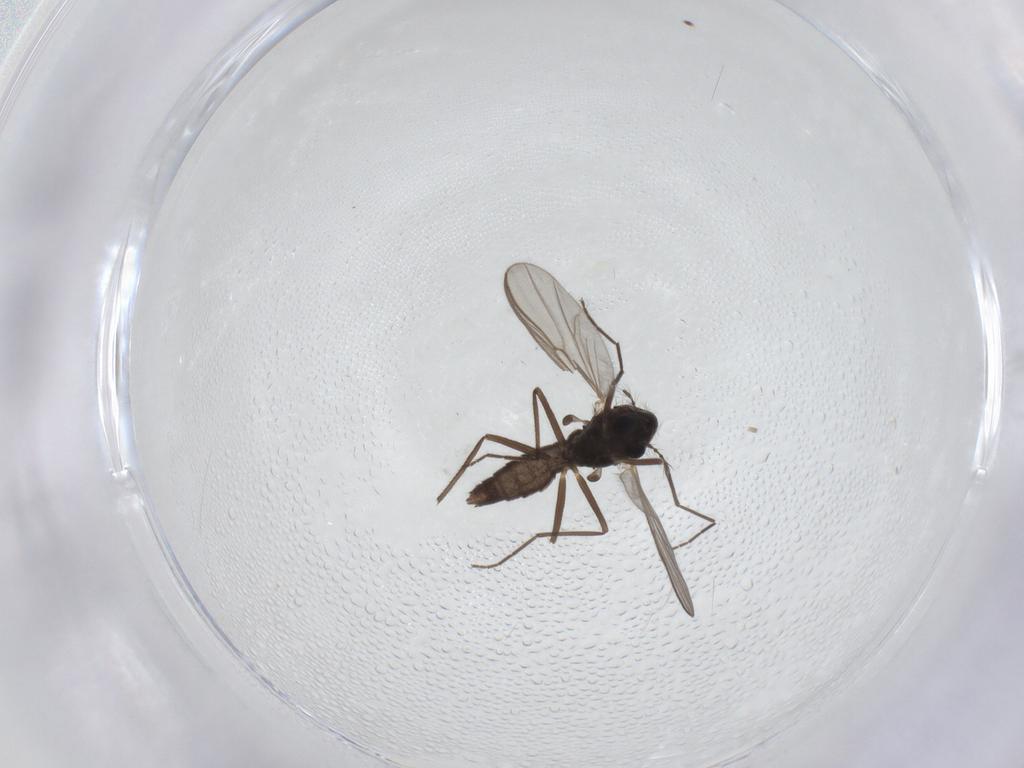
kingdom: Animalia
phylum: Arthropoda
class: Insecta
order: Diptera
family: Chironomidae
